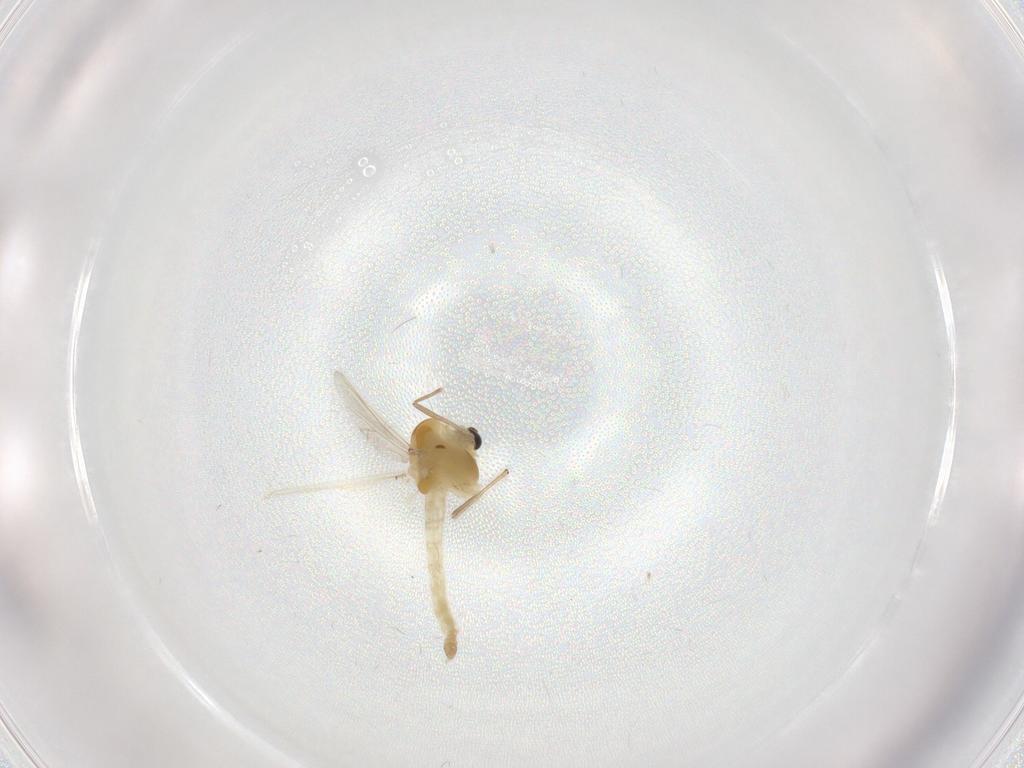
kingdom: Animalia
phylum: Arthropoda
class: Insecta
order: Diptera
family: Chironomidae
